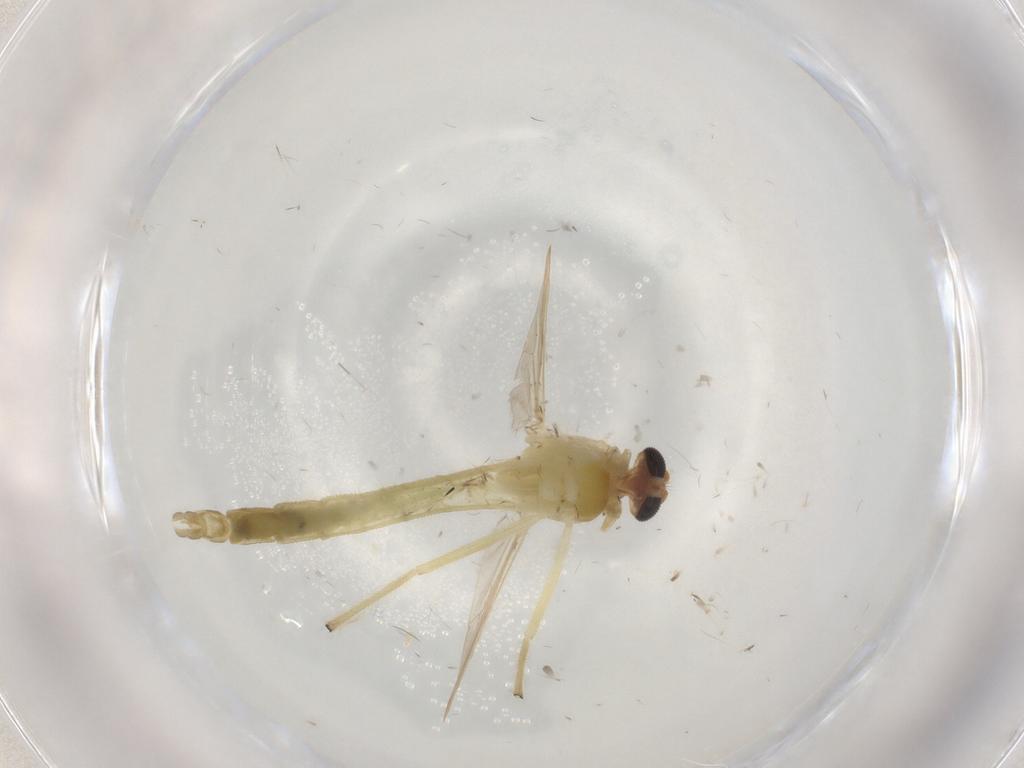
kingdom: Animalia
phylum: Arthropoda
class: Insecta
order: Diptera
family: Chironomidae
